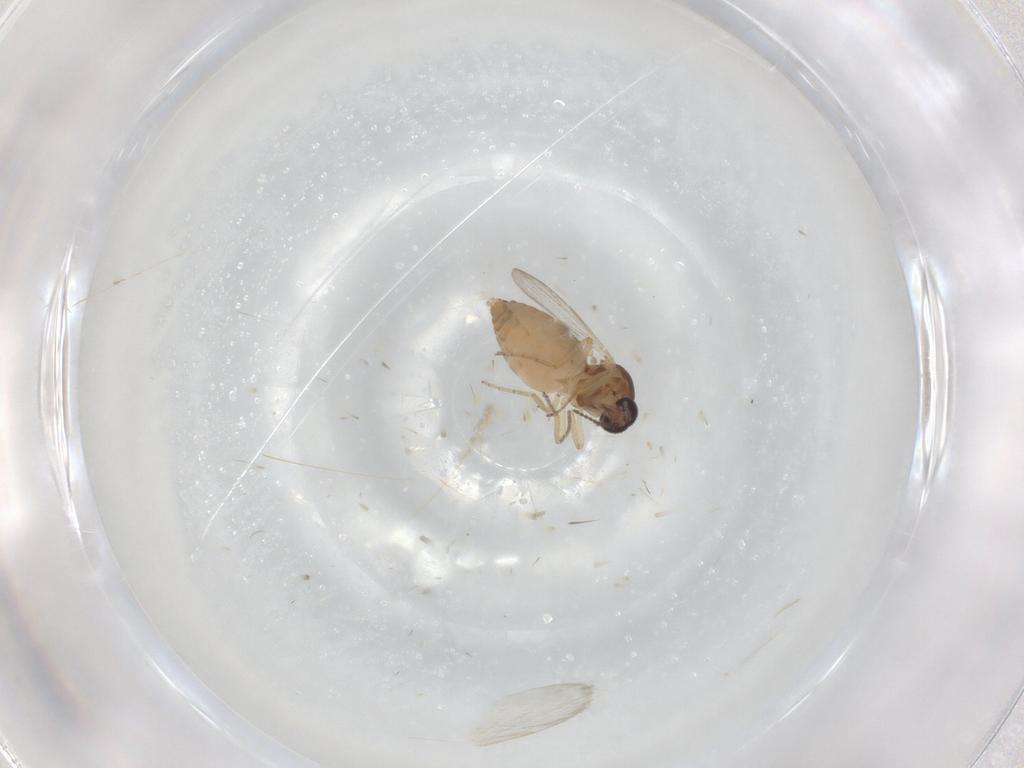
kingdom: Animalia
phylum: Arthropoda
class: Insecta
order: Diptera
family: Ceratopogonidae
